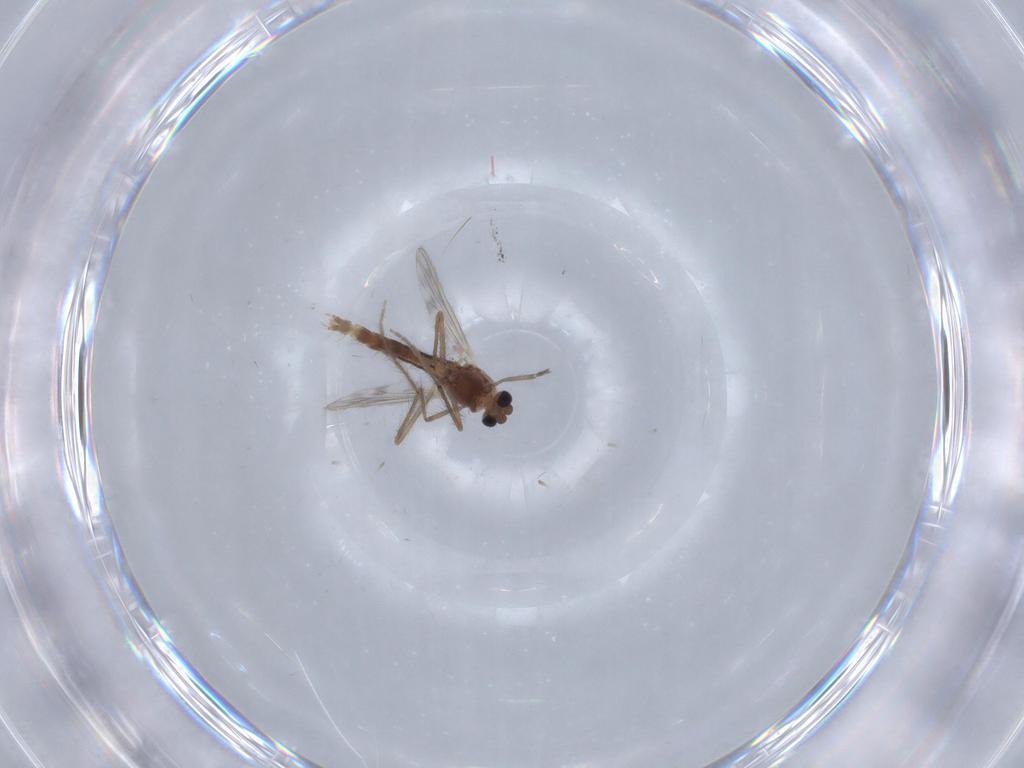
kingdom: Animalia
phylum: Arthropoda
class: Insecta
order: Diptera
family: Chironomidae
